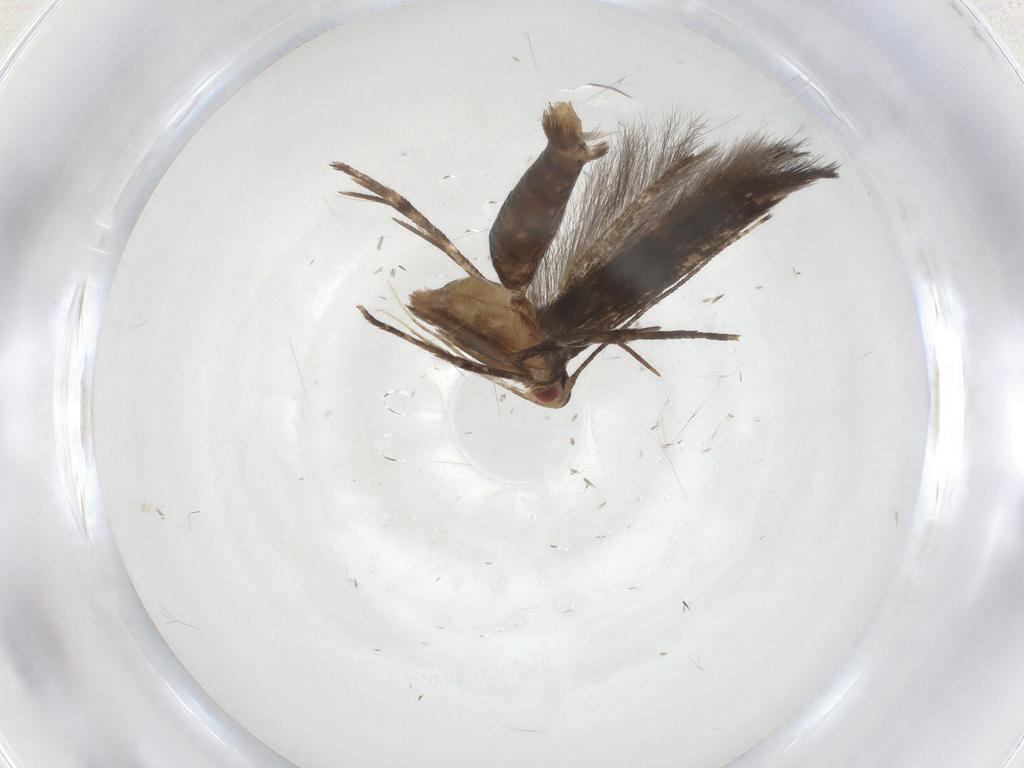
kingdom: Animalia
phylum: Arthropoda
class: Insecta
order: Lepidoptera
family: Cosmopterigidae
